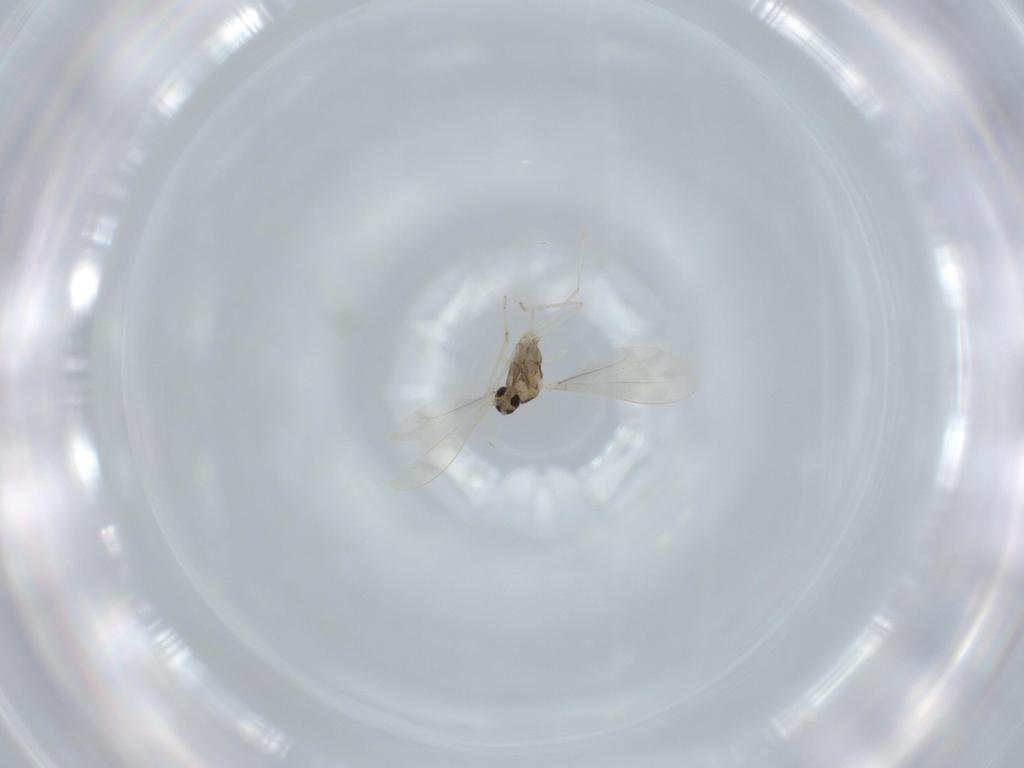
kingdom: Animalia
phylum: Arthropoda
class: Insecta
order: Diptera
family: Cecidomyiidae
